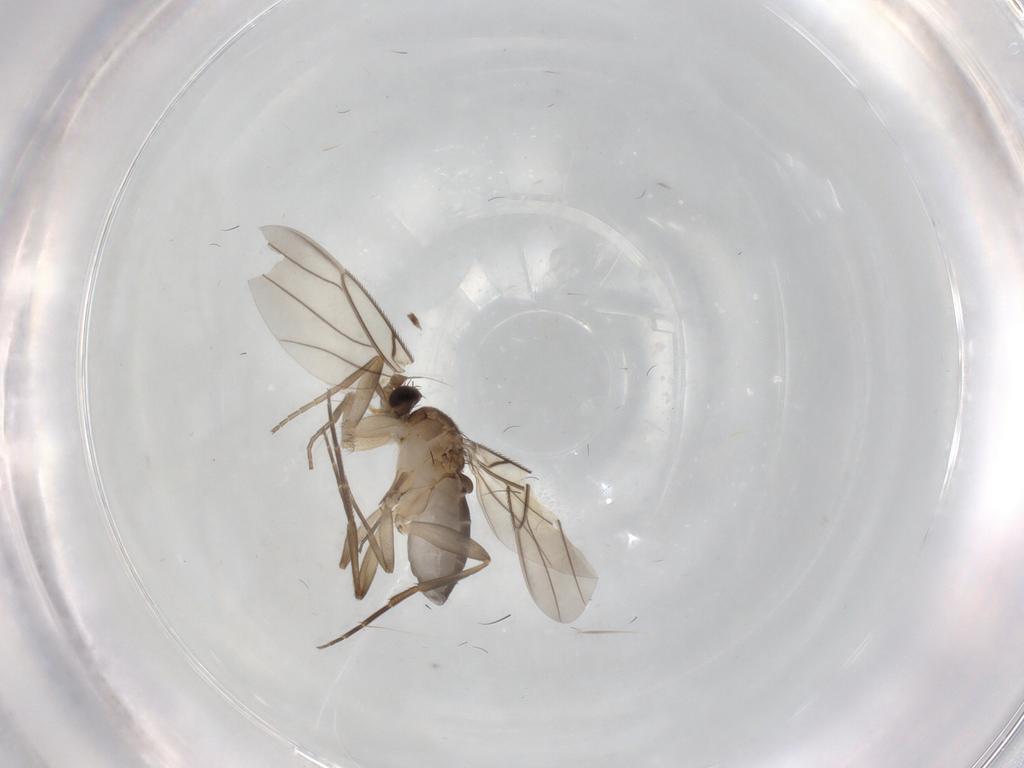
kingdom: Animalia
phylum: Arthropoda
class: Insecta
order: Diptera
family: Phoridae
